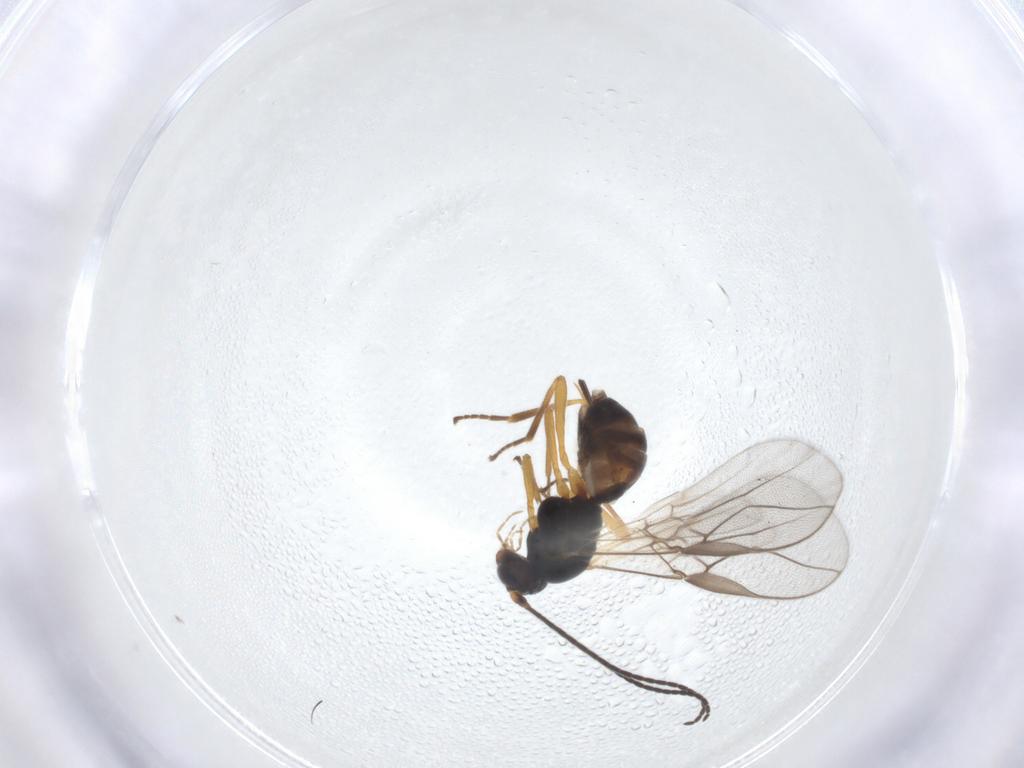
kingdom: Animalia
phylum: Arthropoda
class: Insecta
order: Hymenoptera
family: Braconidae
